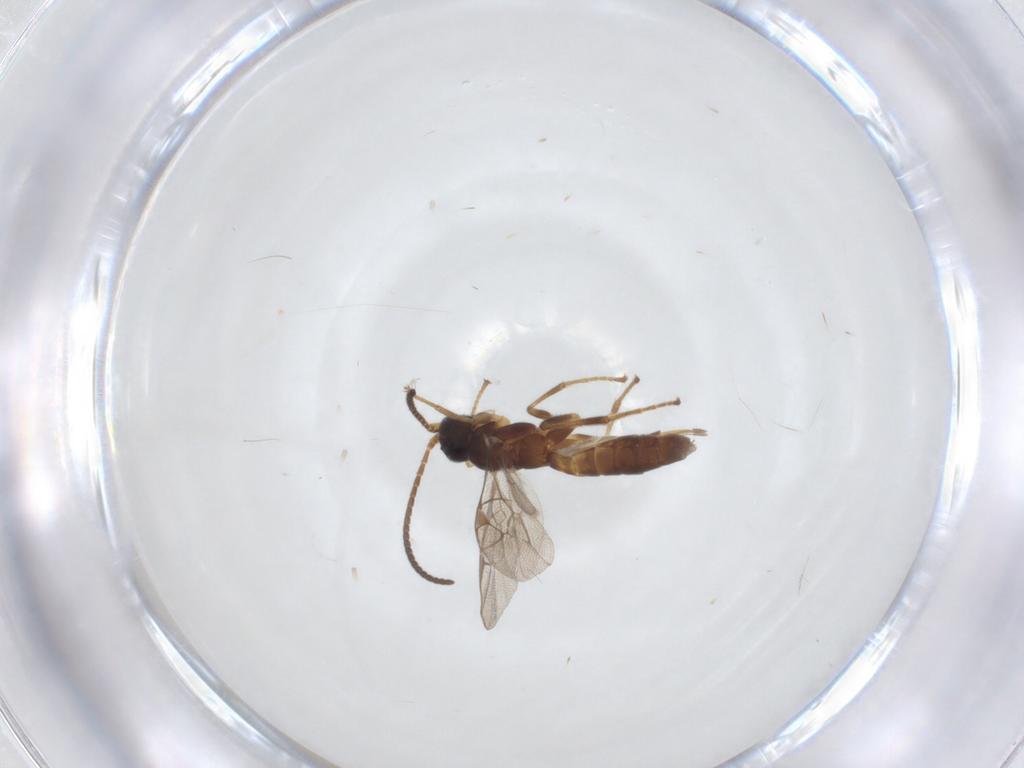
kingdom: Animalia
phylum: Arthropoda
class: Insecta
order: Hymenoptera
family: Ichneumonidae
